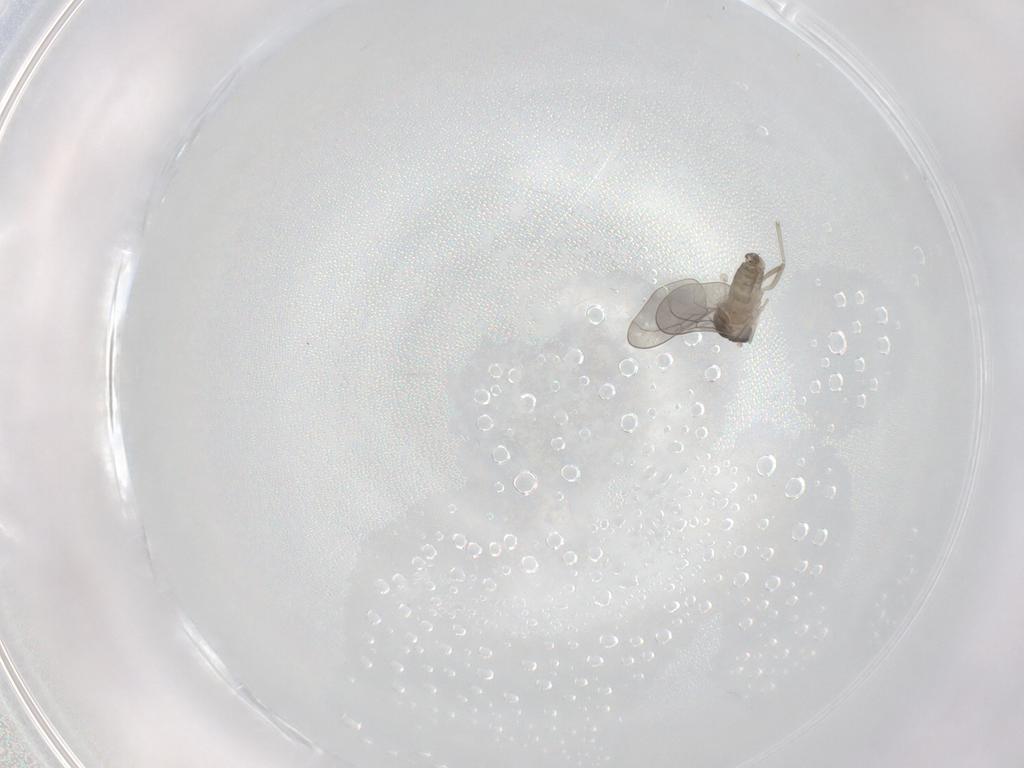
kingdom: Animalia
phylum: Arthropoda
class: Insecta
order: Diptera
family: Cecidomyiidae
